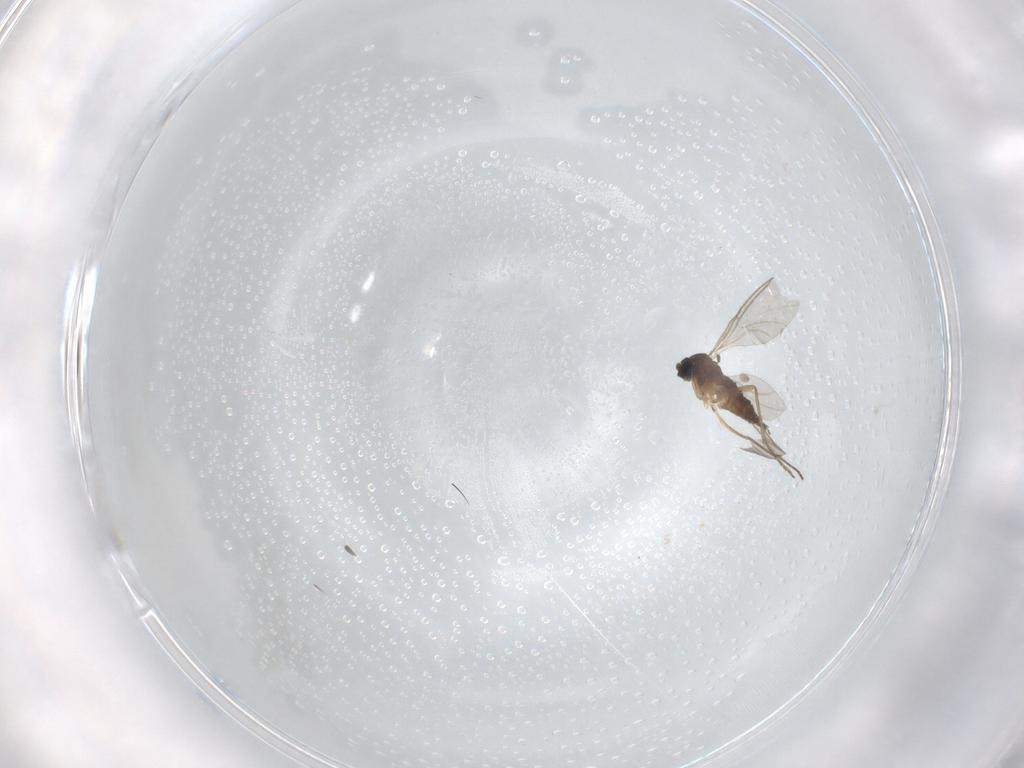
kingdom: Animalia
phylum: Arthropoda
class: Insecta
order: Diptera
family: Sciaridae
